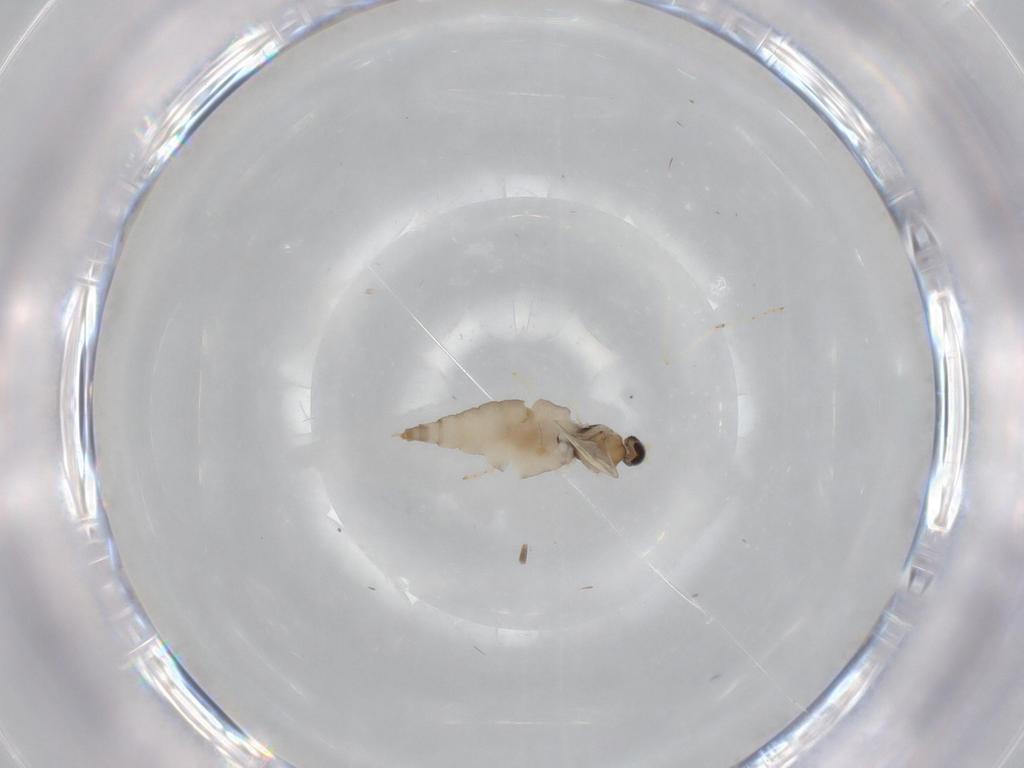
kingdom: Animalia
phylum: Arthropoda
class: Insecta
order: Diptera
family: Cecidomyiidae
